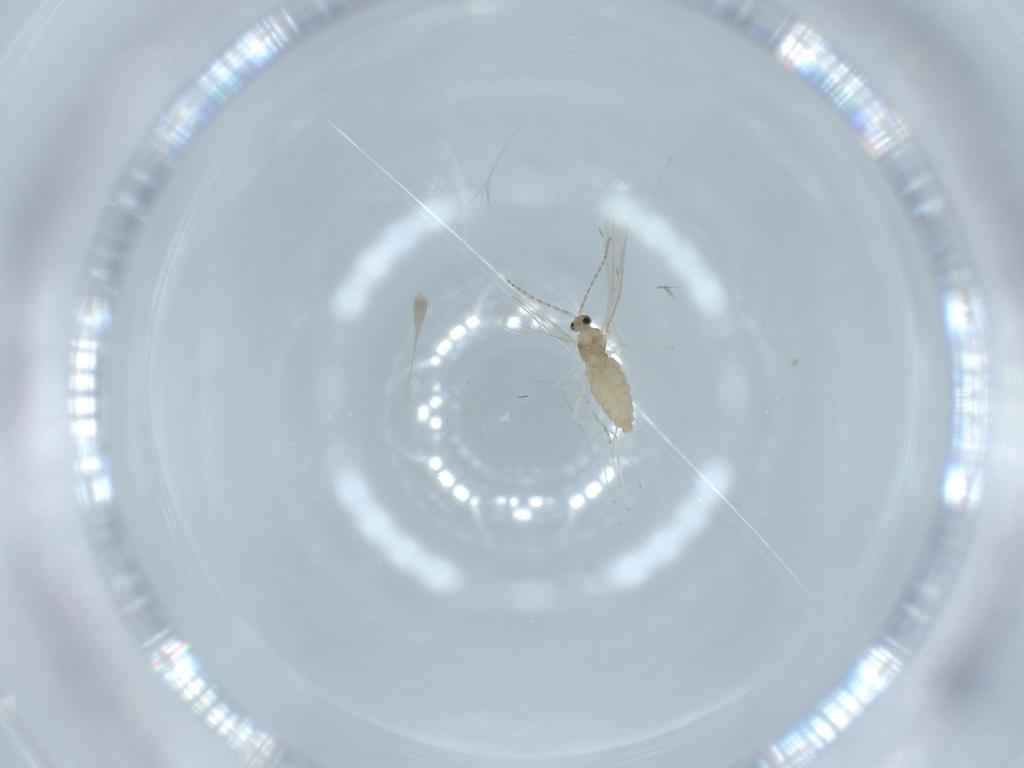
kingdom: Animalia
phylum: Arthropoda
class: Insecta
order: Diptera
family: Cecidomyiidae
